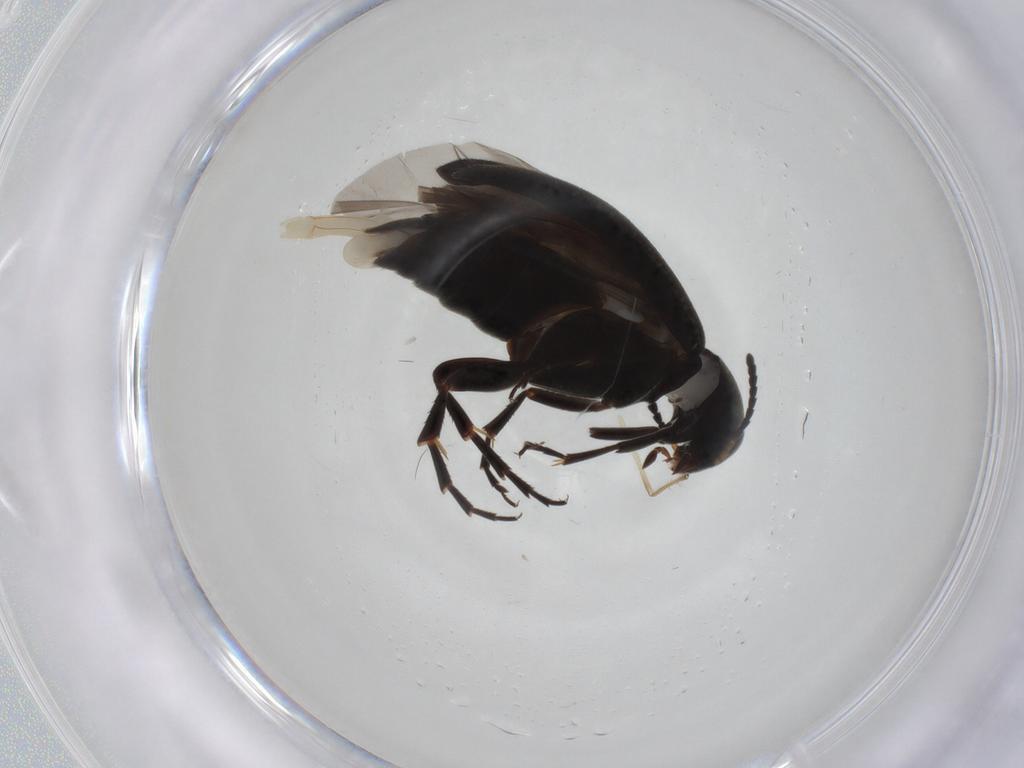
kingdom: Animalia
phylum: Arthropoda
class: Insecta
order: Coleoptera
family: Scraptiidae
